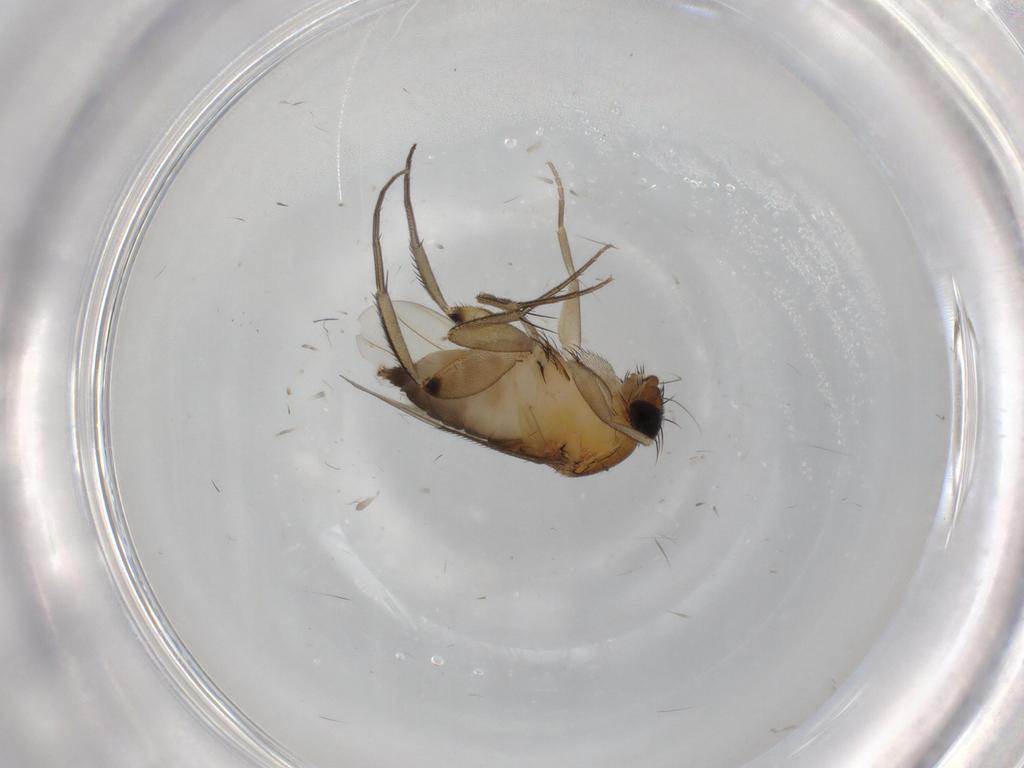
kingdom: Animalia
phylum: Arthropoda
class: Insecta
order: Diptera
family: Phoridae
